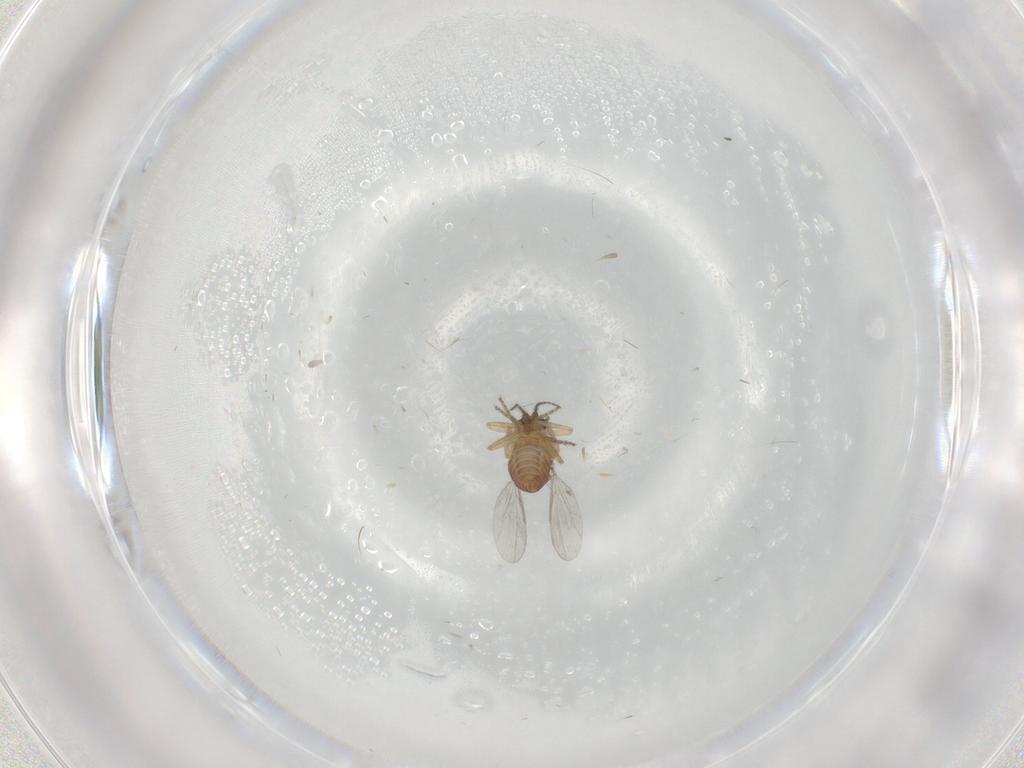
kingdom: Animalia
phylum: Arthropoda
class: Insecta
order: Diptera
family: Ceratopogonidae
